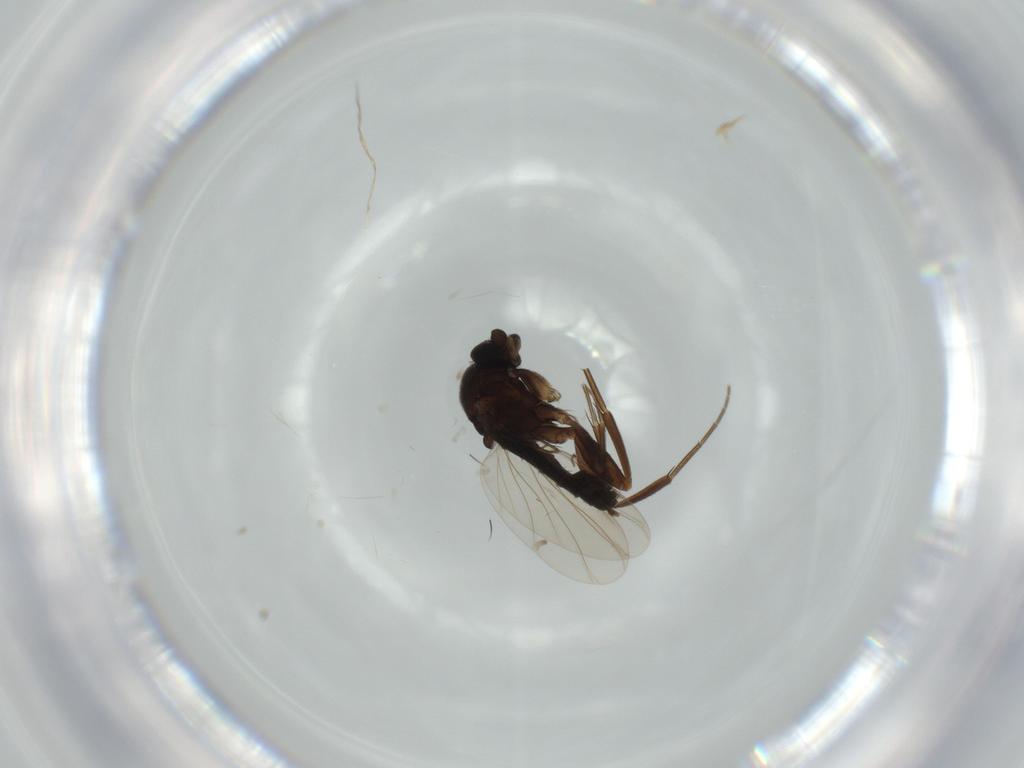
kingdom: Animalia
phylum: Arthropoda
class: Insecta
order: Diptera
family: Phoridae
